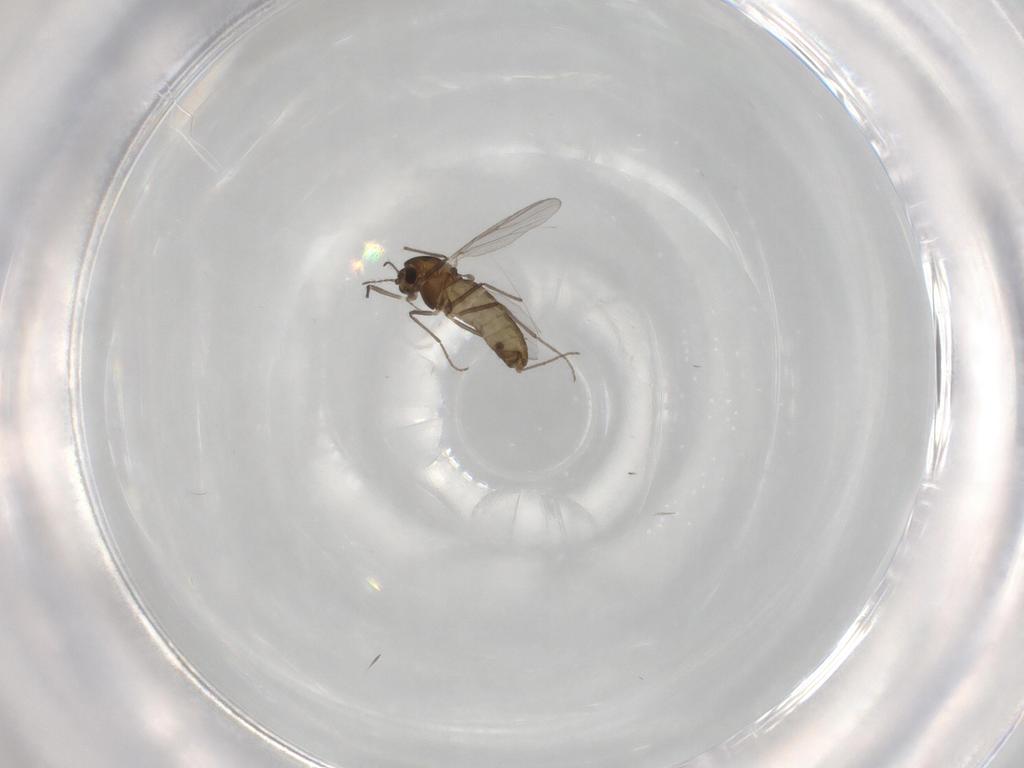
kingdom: Animalia
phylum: Arthropoda
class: Insecta
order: Diptera
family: Chironomidae
